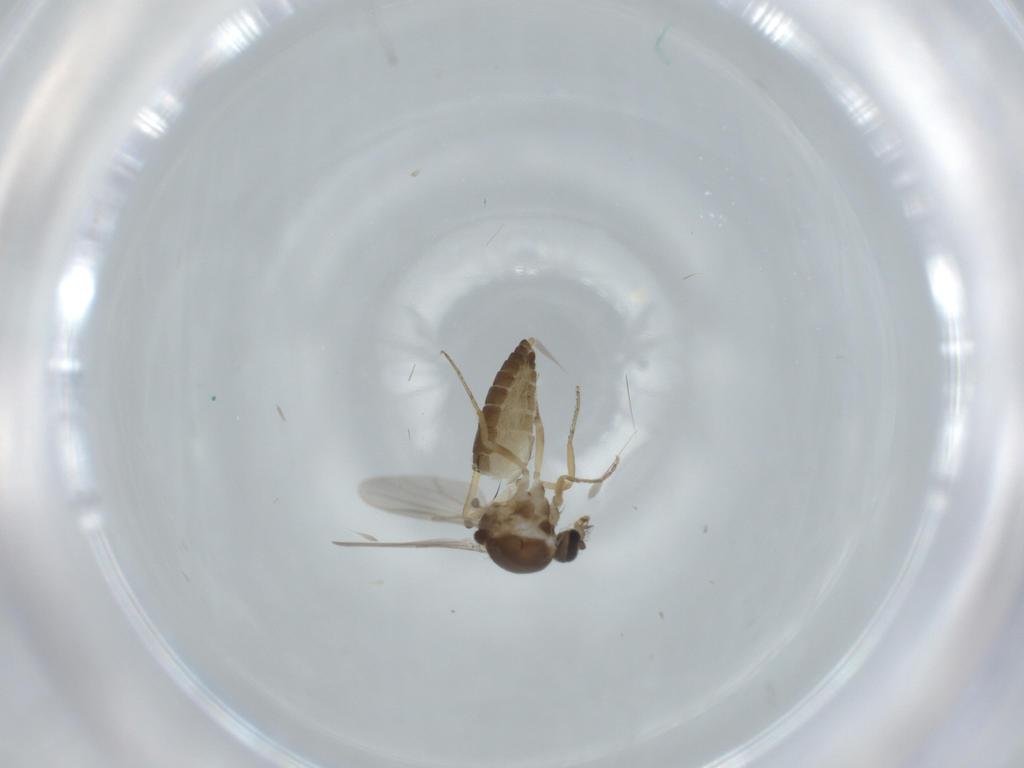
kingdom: Animalia
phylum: Arthropoda
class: Insecta
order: Diptera
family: Ceratopogonidae
